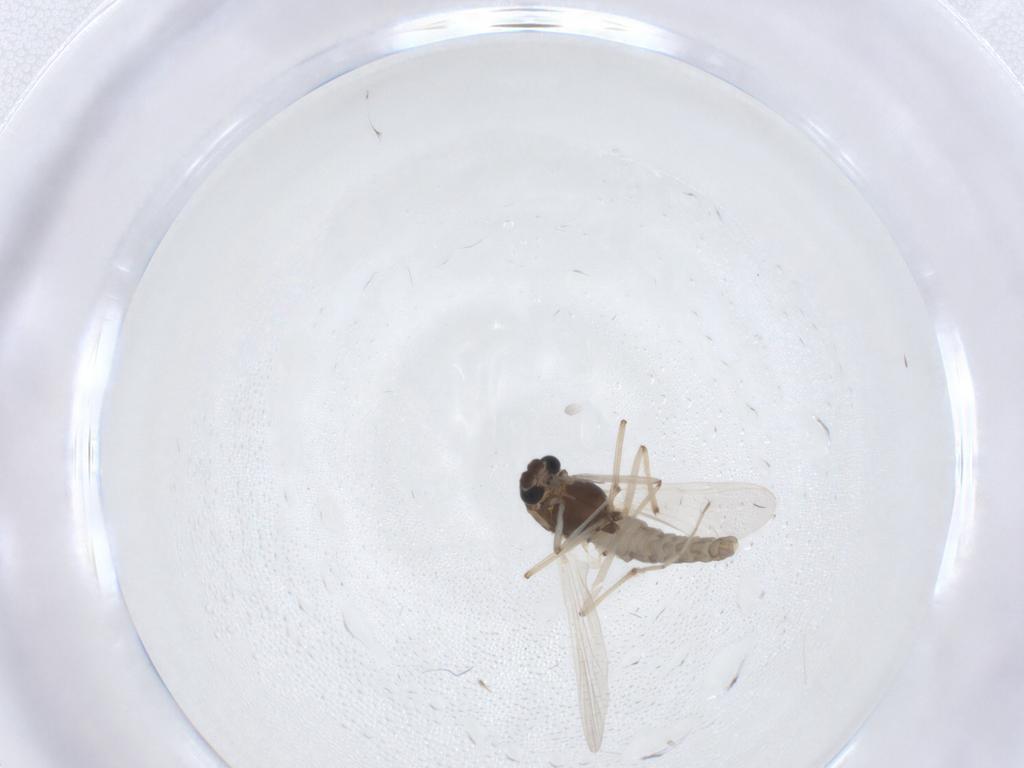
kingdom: Animalia
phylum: Arthropoda
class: Insecta
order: Diptera
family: Chironomidae
